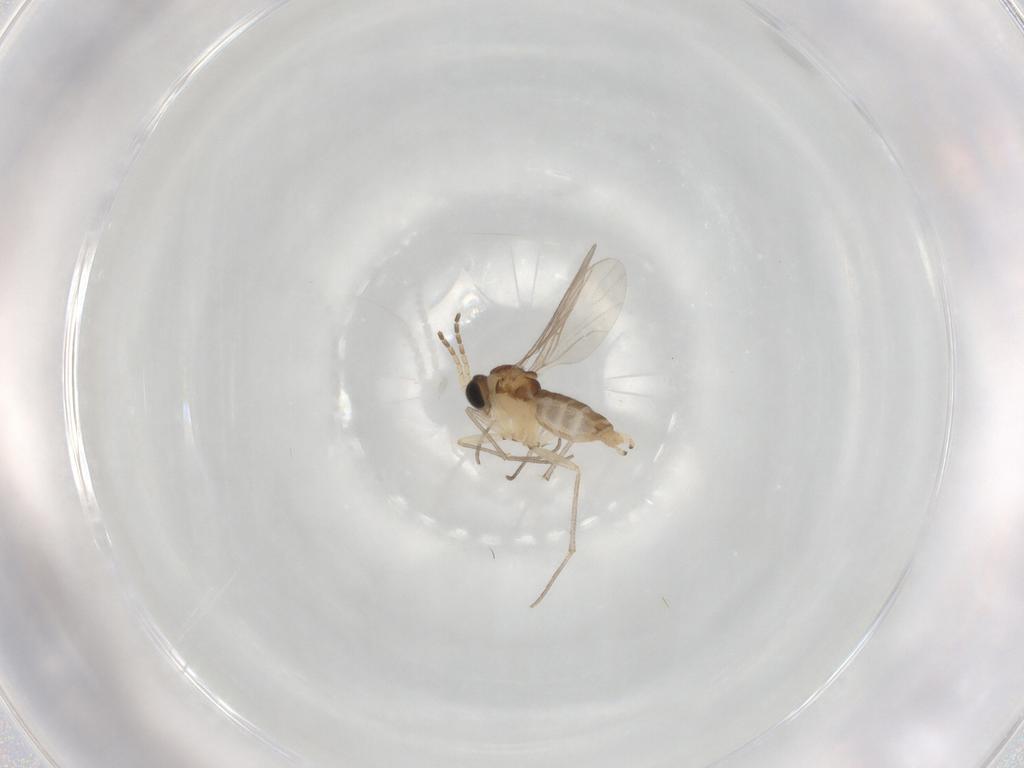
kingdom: Animalia
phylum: Arthropoda
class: Insecta
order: Diptera
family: Sciaridae
